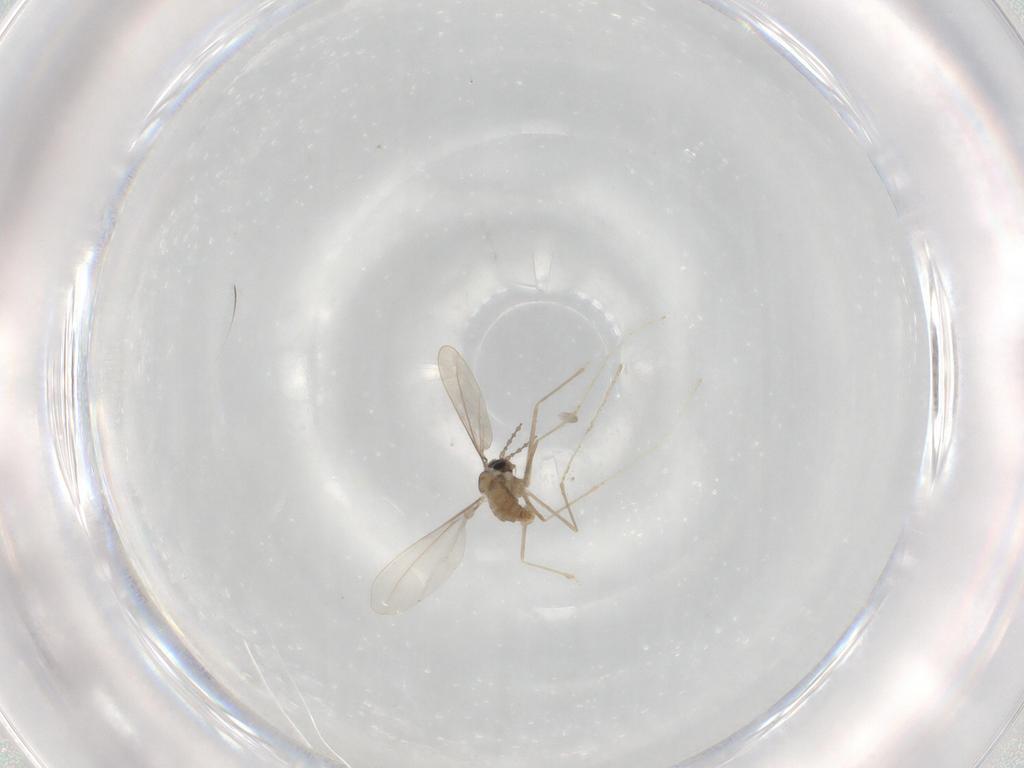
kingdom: Animalia
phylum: Arthropoda
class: Insecta
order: Diptera
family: Cecidomyiidae
